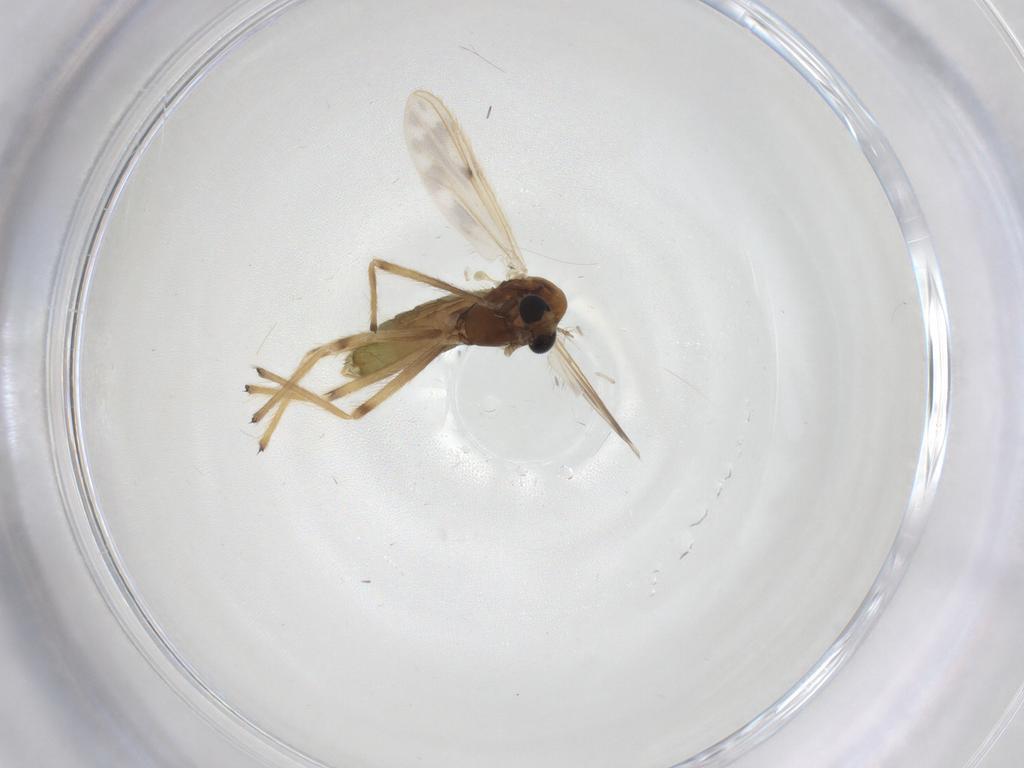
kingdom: Animalia
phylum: Arthropoda
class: Insecta
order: Diptera
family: Chironomidae
